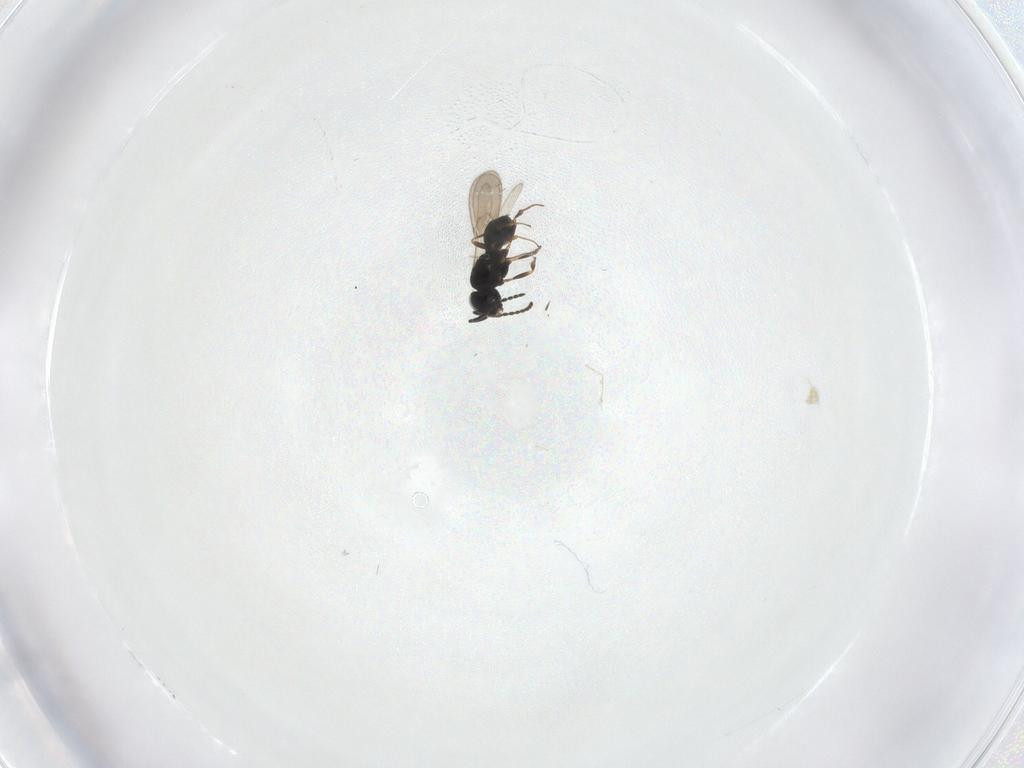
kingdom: Animalia
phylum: Arthropoda
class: Insecta
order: Hymenoptera
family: Scelionidae
